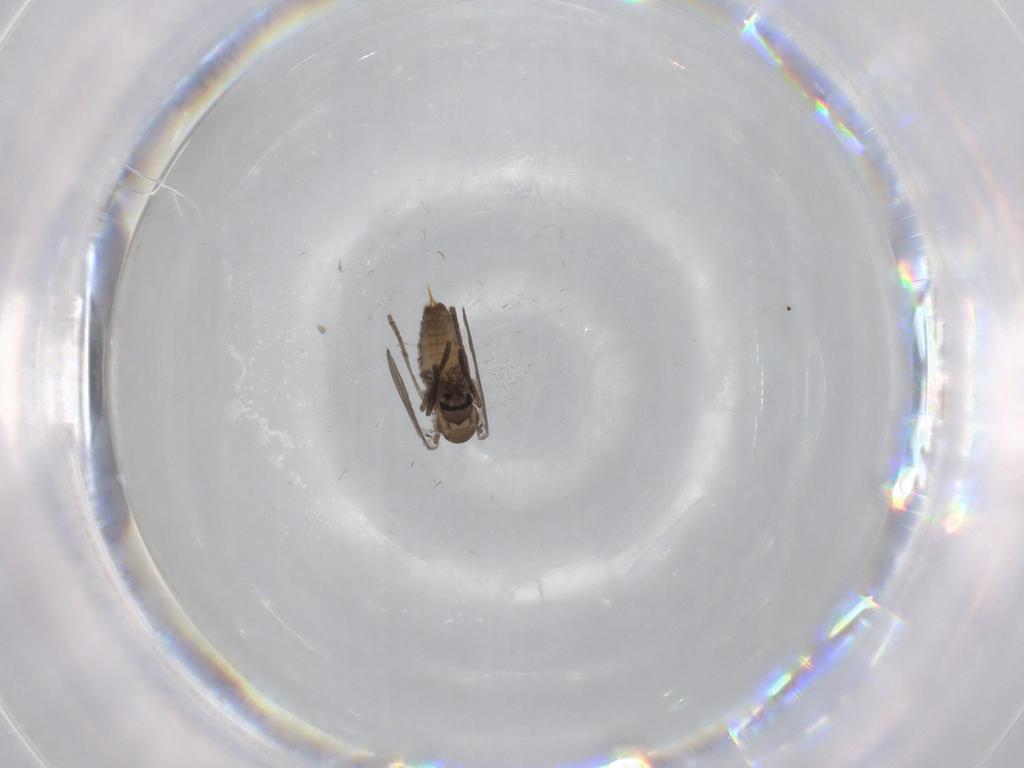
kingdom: Animalia
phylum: Arthropoda
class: Insecta
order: Diptera
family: Psychodidae
